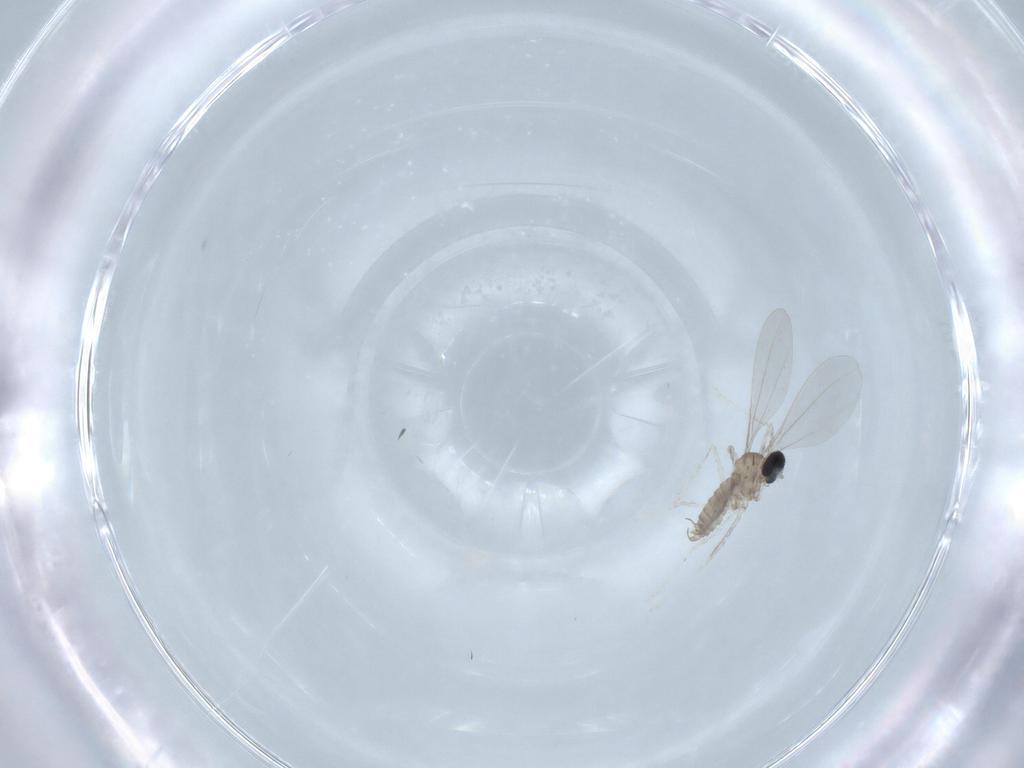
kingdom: Animalia
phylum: Arthropoda
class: Insecta
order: Diptera
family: Cecidomyiidae
